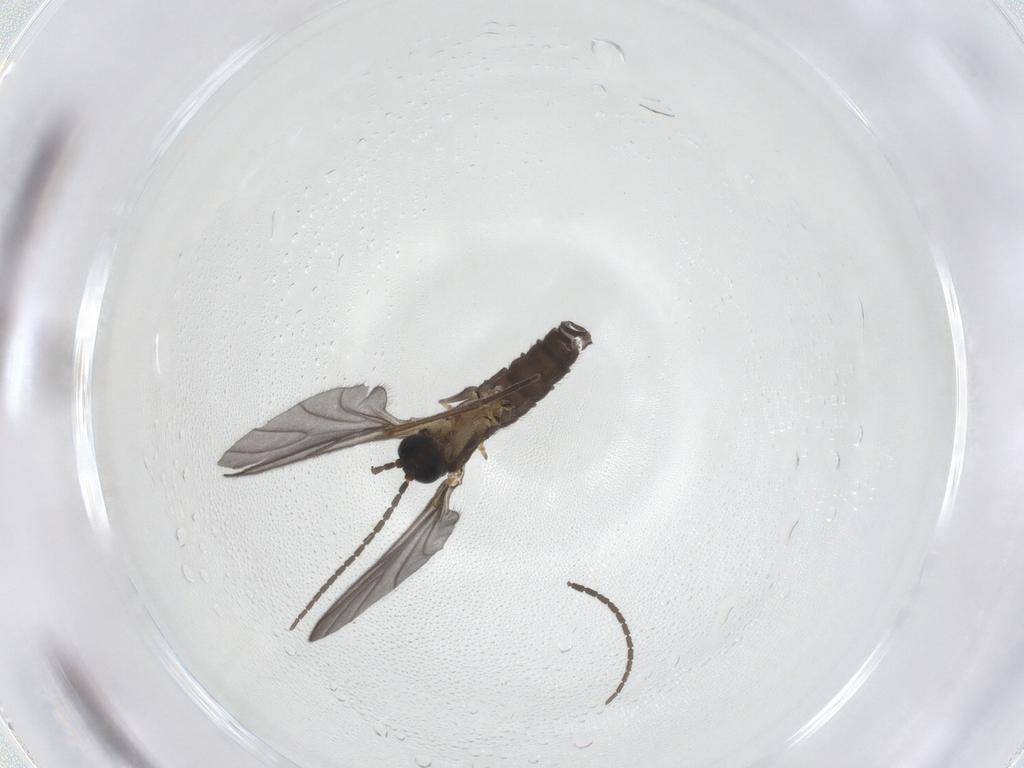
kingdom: Animalia
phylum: Arthropoda
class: Insecta
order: Diptera
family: Sciaridae
